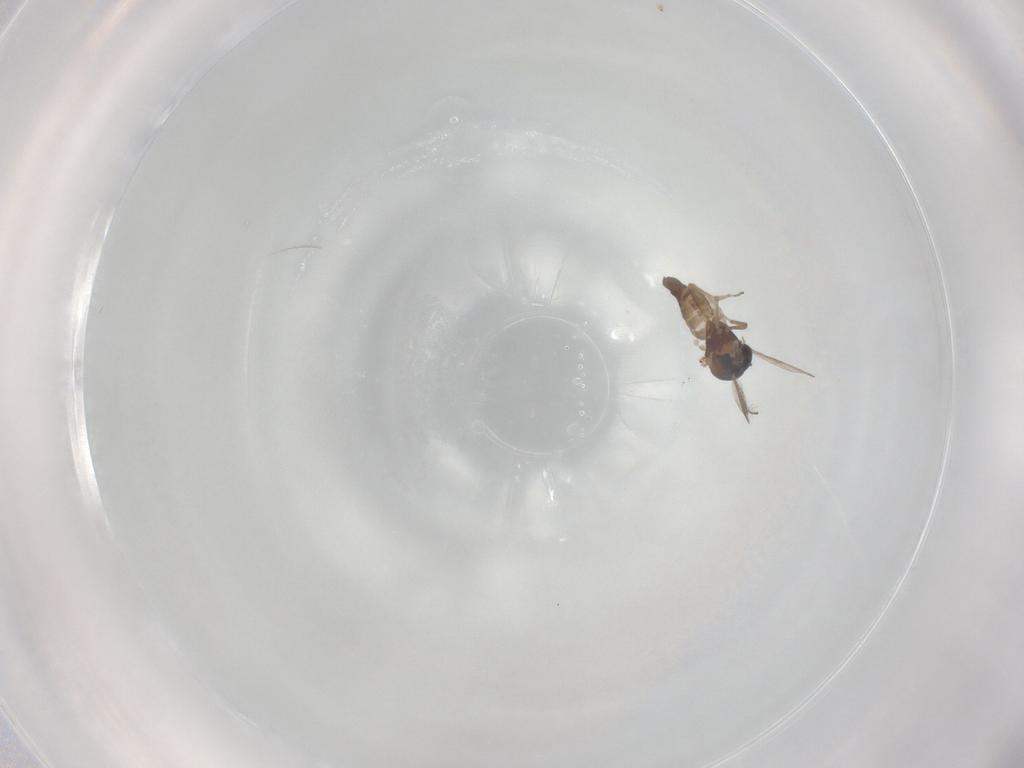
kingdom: Animalia
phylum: Arthropoda
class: Insecta
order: Diptera
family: Ceratopogonidae
